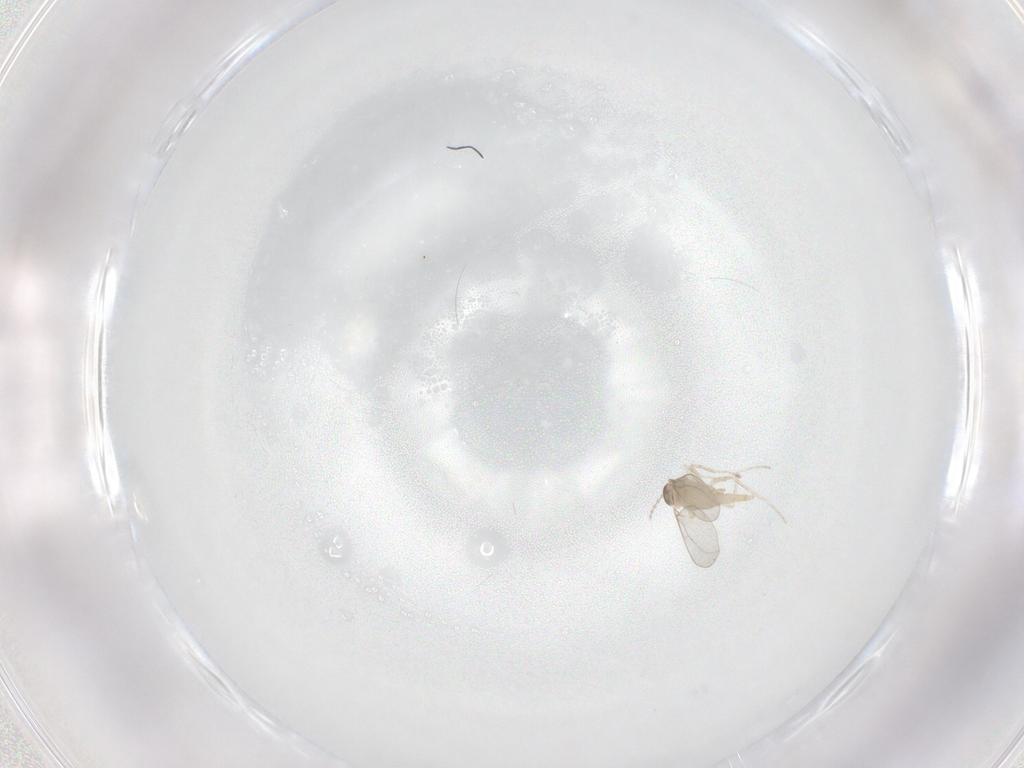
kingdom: Animalia
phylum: Arthropoda
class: Insecta
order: Diptera
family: Cecidomyiidae
